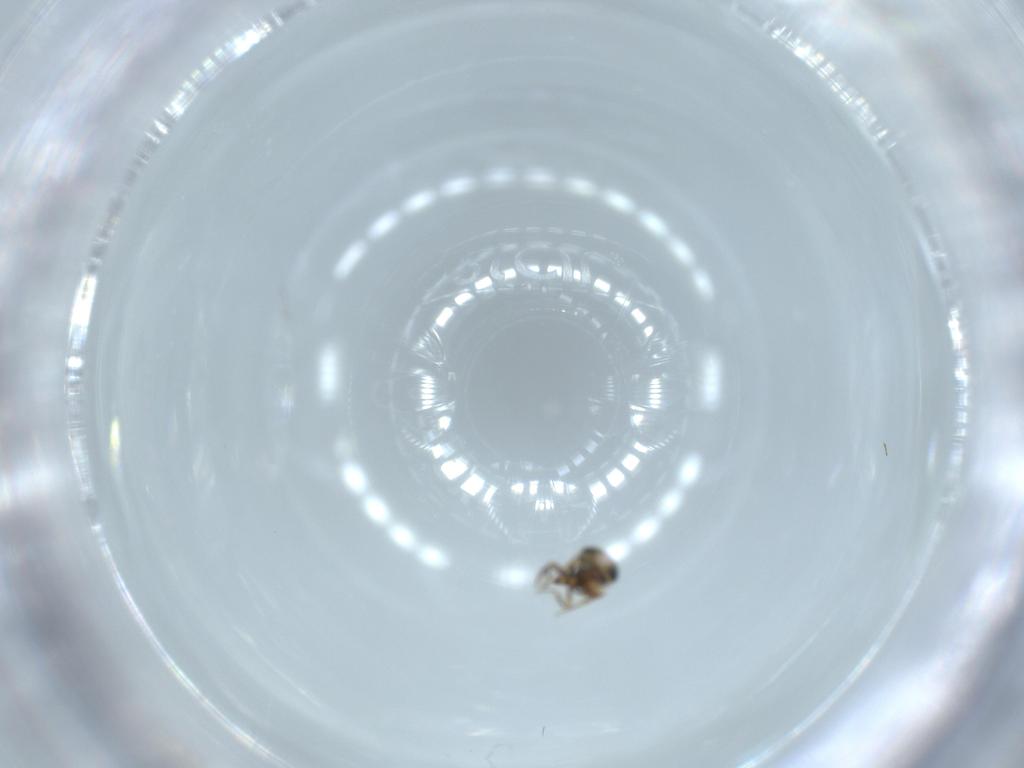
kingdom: Animalia
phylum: Arthropoda
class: Insecta
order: Hymenoptera
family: Scelionidae
